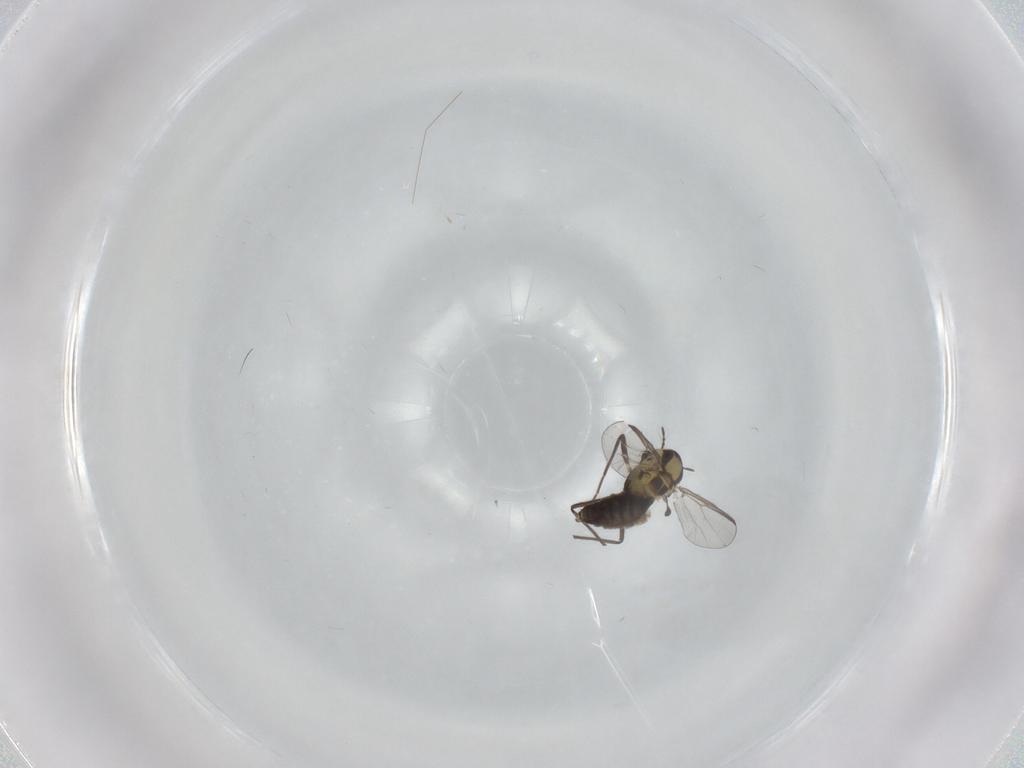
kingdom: Animalia
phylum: Arthropoda
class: Insecta
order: Diptera
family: Chironomidae
